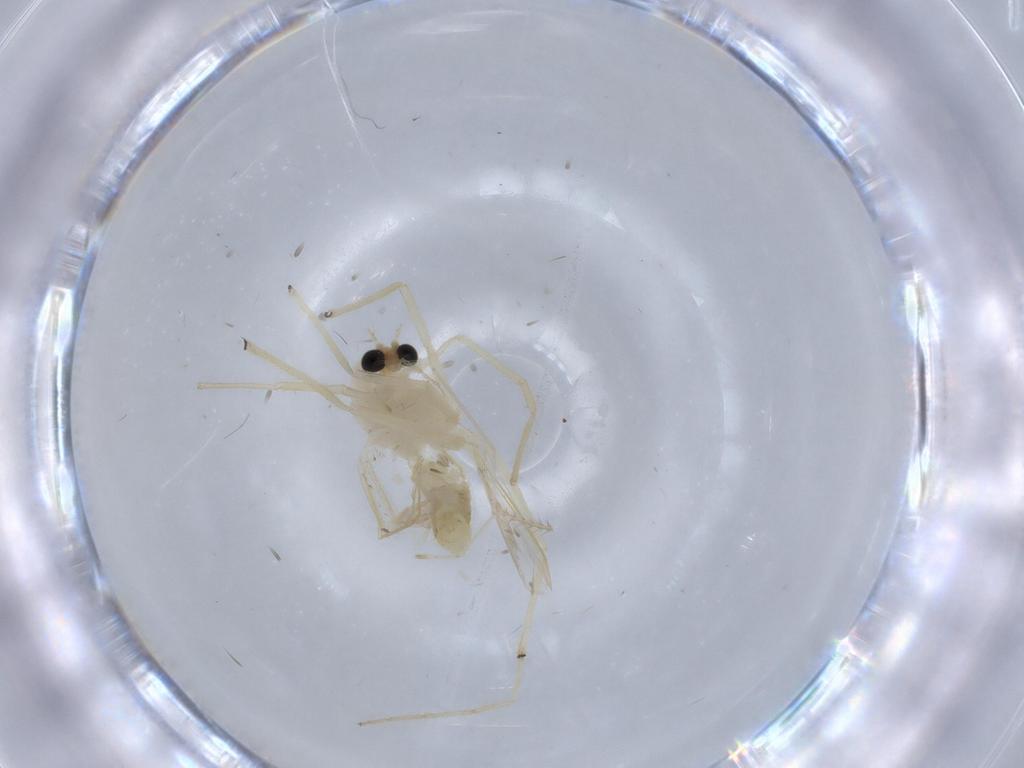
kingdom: Animalia
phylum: Arthropoda
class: Insecta
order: Diptera
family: Chironomidae
